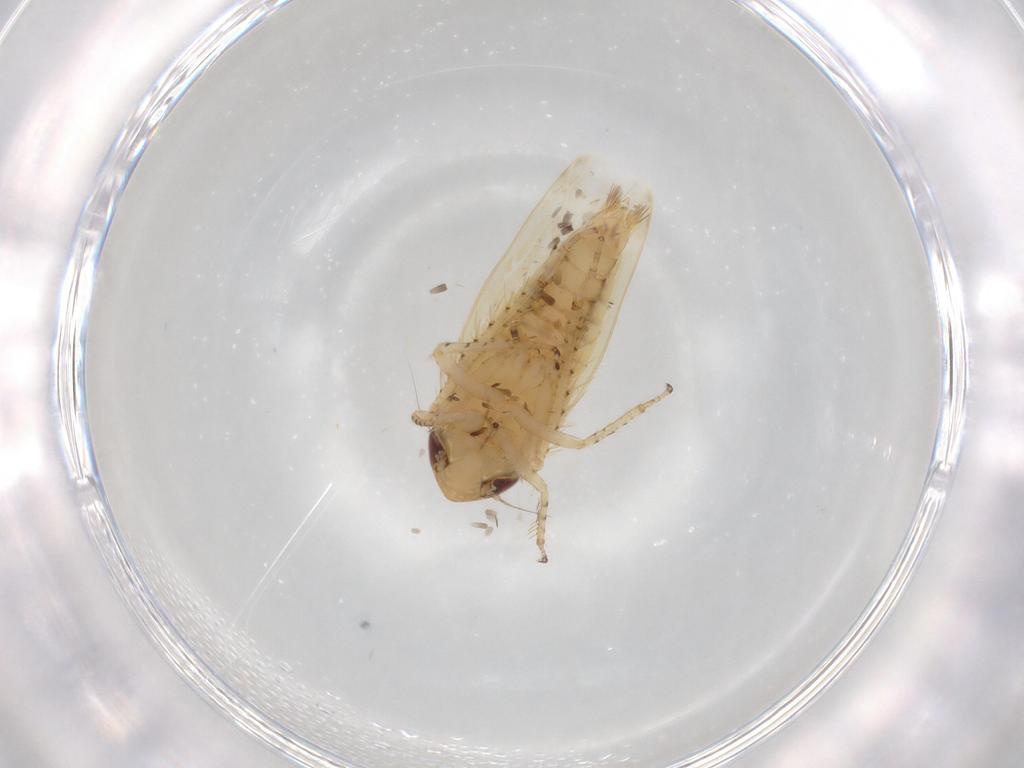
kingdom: Animalia
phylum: Arthropoda
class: Insecta
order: Hemiptera
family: Cicadellidae
